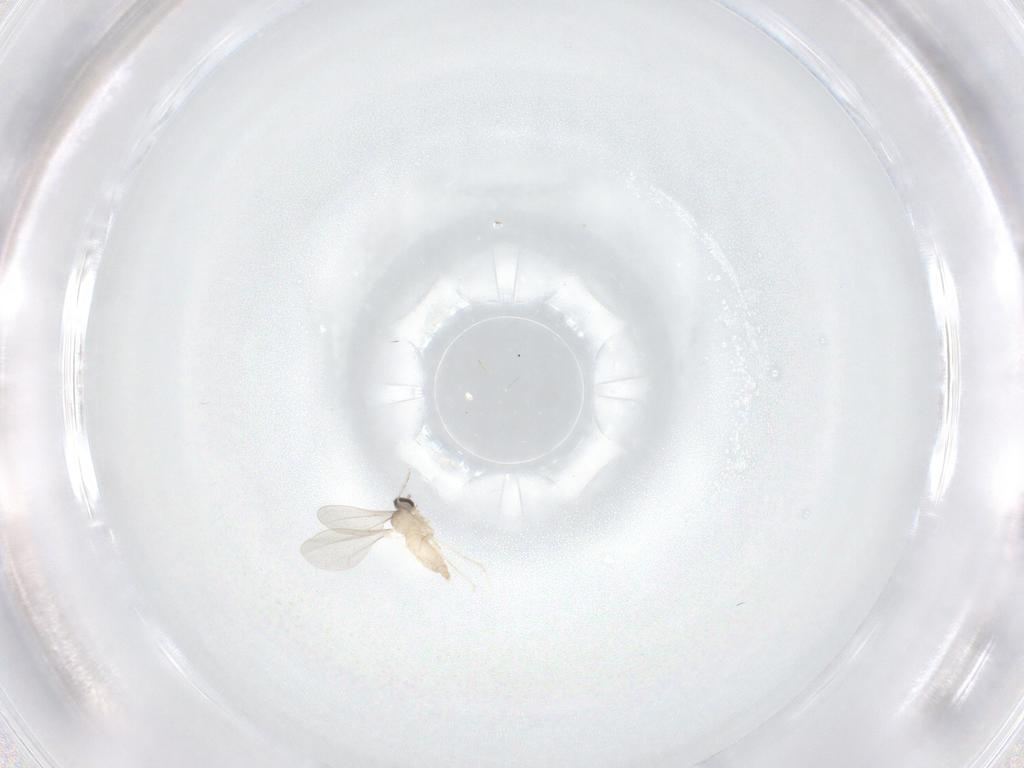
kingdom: Animalia
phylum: Arthropoda
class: Insecta
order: Diptera
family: Cecidomyiidae
